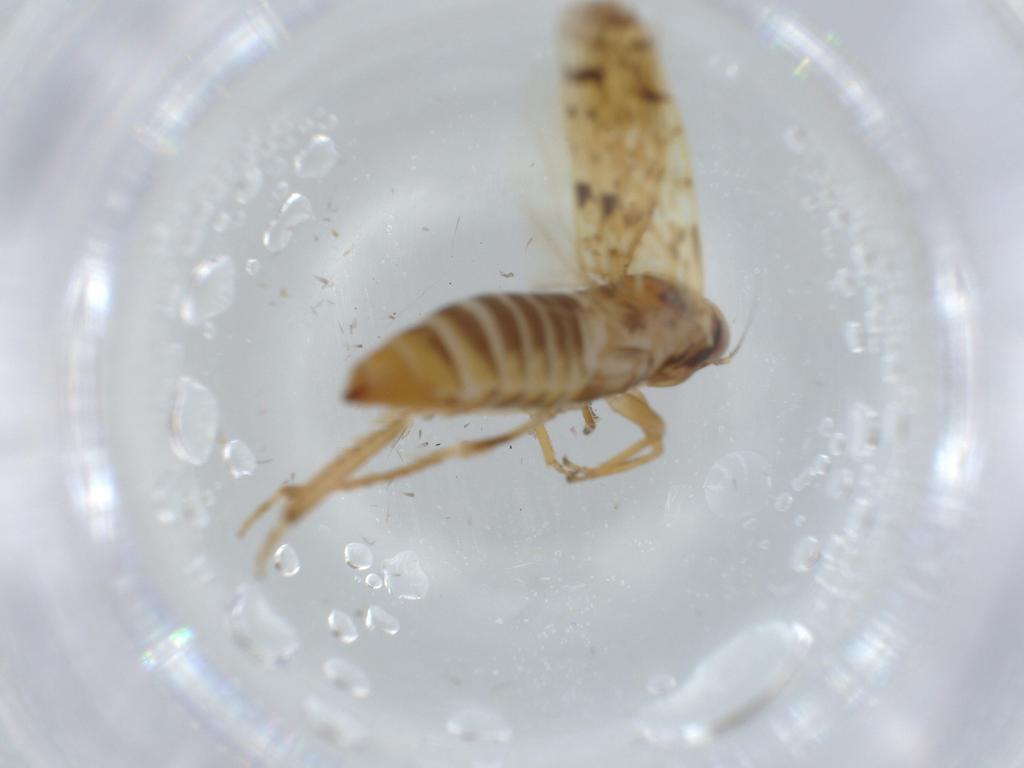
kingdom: Animalia
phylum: Arthropoda
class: Insecta
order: Hemiptera
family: Cicadellidae
